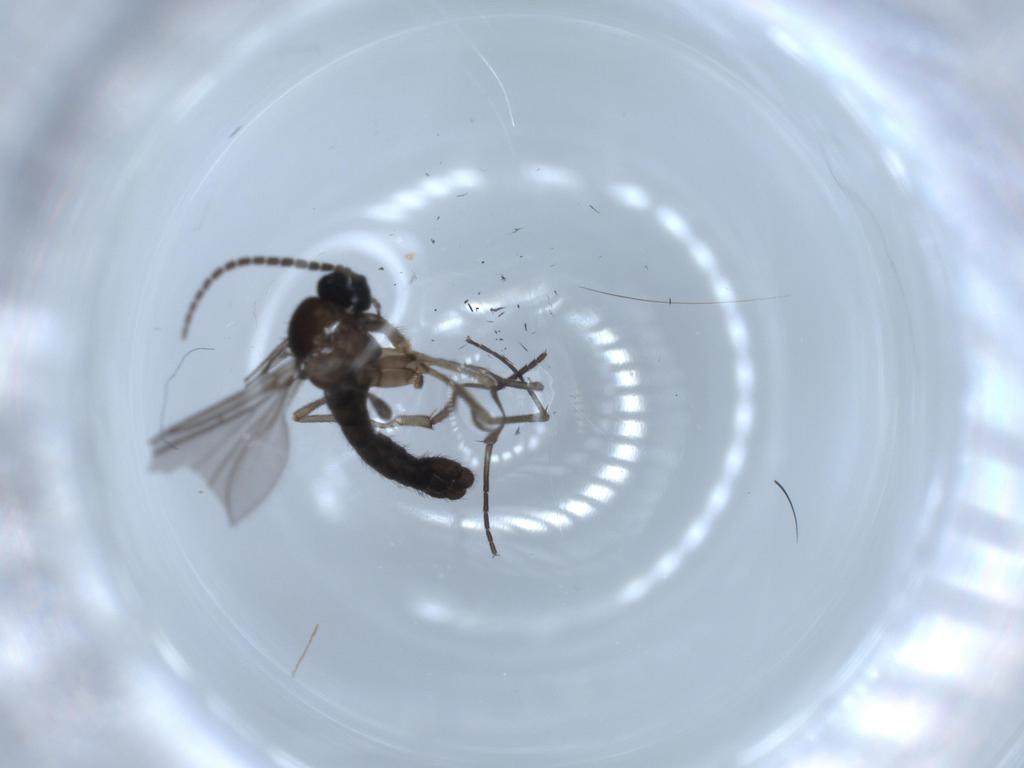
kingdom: Animalia
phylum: Arthropoda
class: Insecta
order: Diptera
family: Sciaridae
